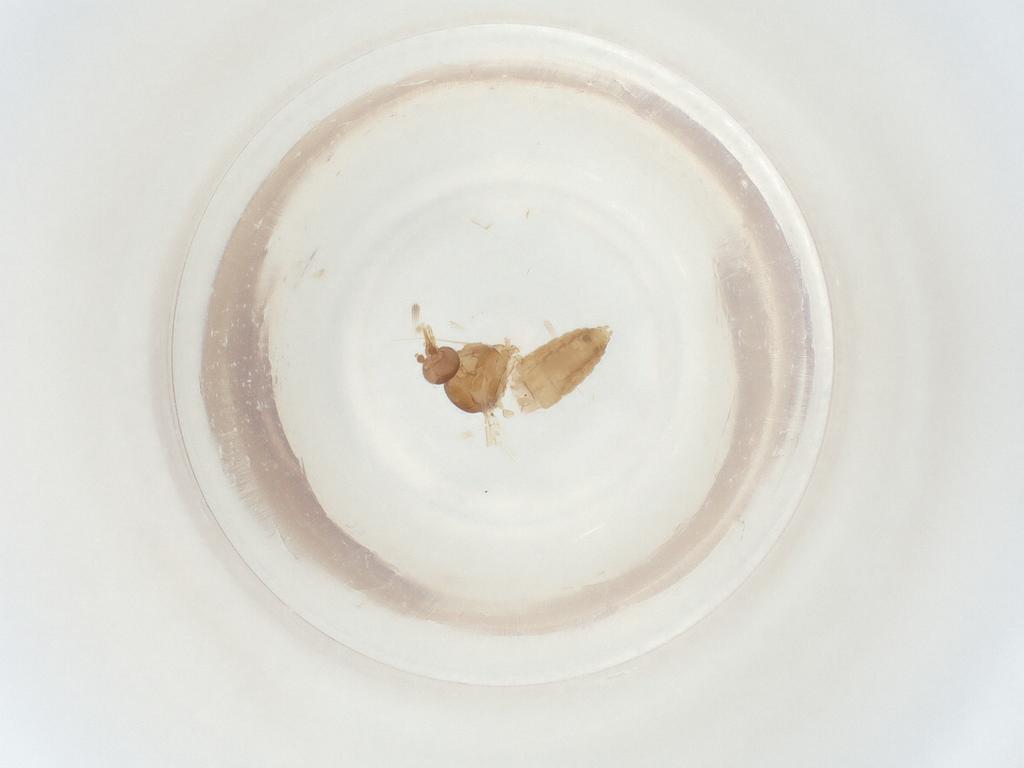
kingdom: Animalia
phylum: Arthropoda
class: Insecta
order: Diptera
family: Ceratopogonidae
